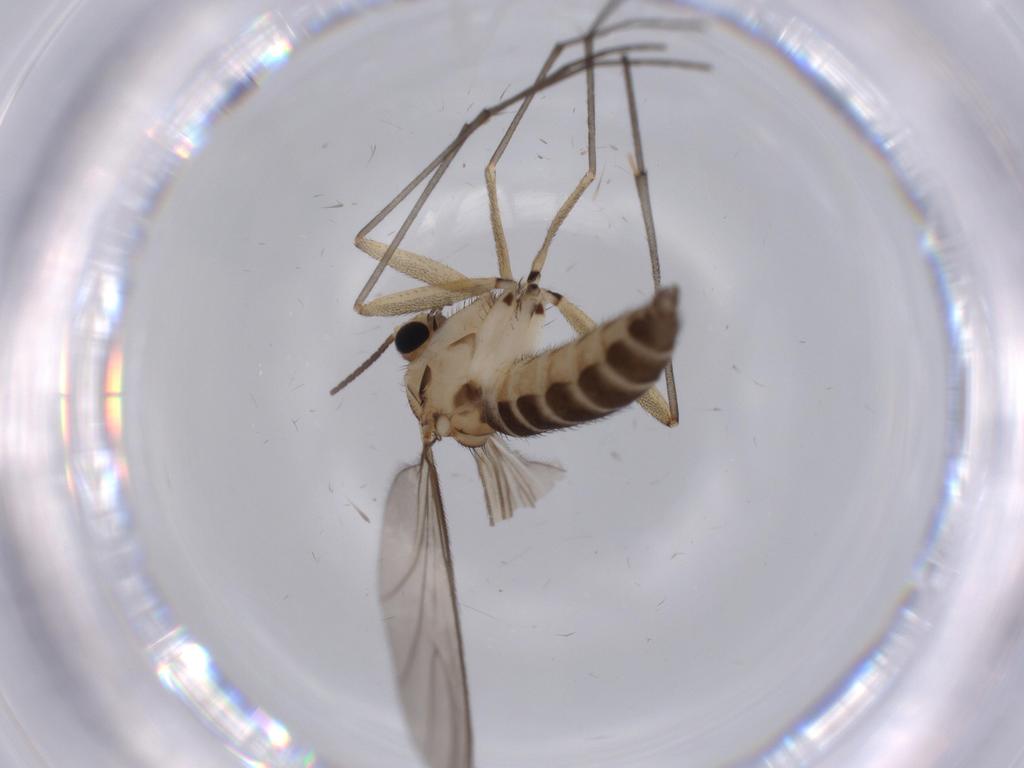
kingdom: Animalia
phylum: Arthropoda
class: Insecta
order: Diptera
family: Sciaridae
